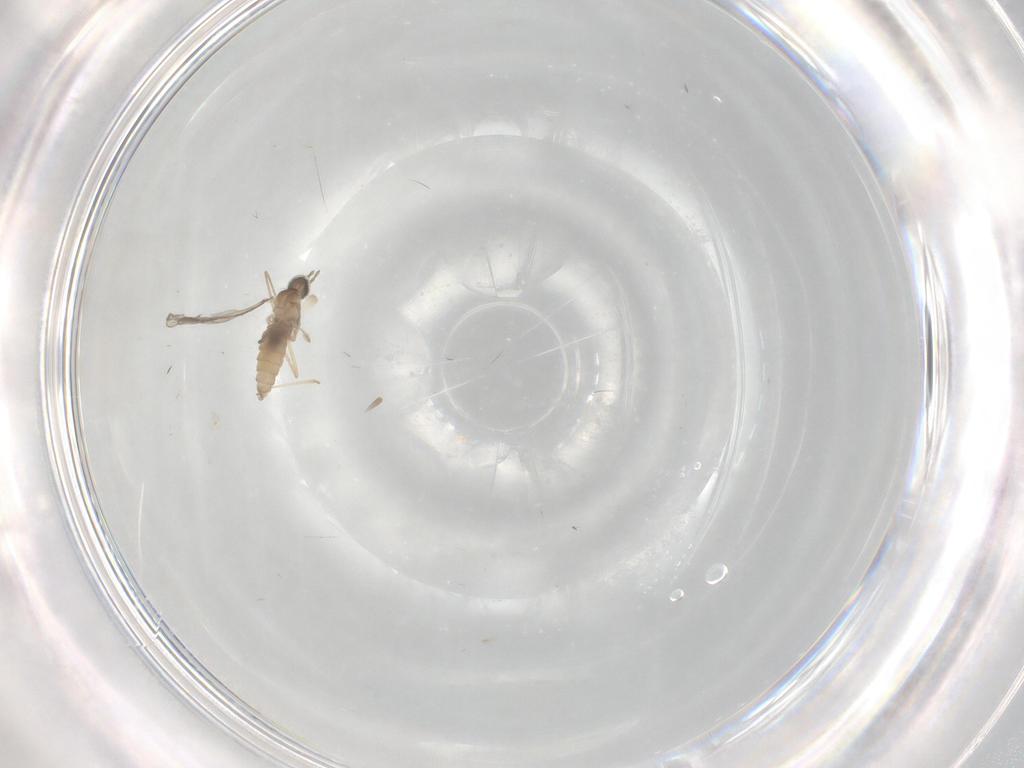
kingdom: Animalia
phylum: Arthropoda
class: Insecta
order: Diptera
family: Cecidomyiidae
